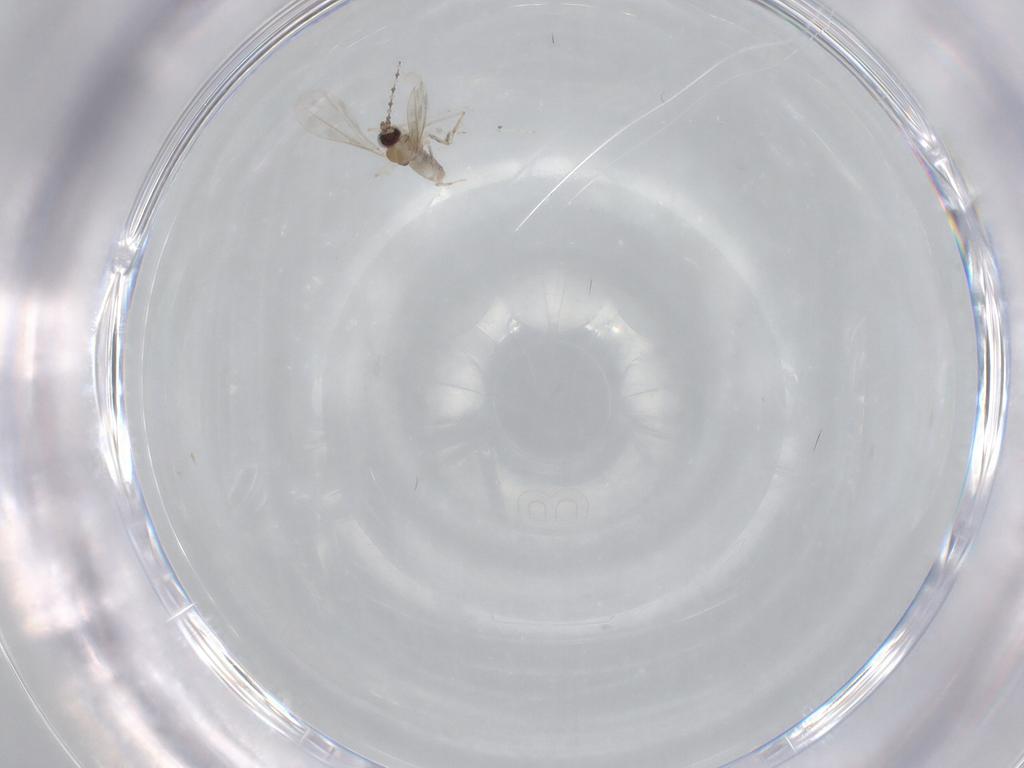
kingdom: Animalia
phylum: Arthropoda
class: Insecta
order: Diptera
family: Cecidomyiidae
